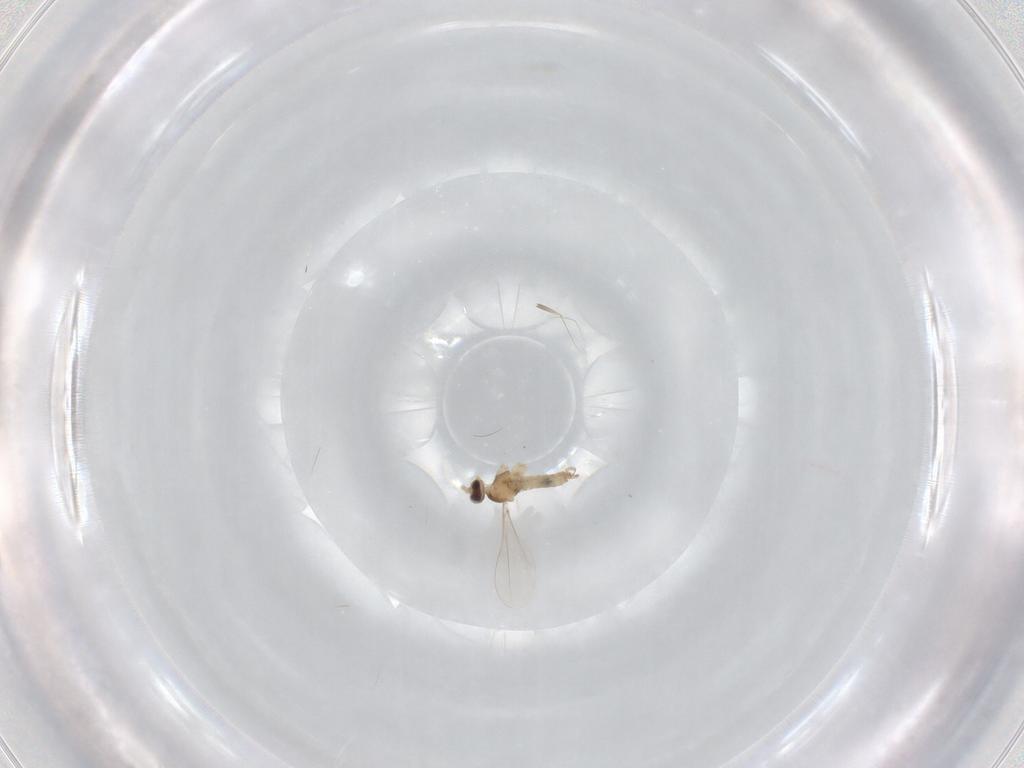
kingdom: Animalia
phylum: Arthropoda
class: Insecta
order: Diptera
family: Cecidomyiidae
